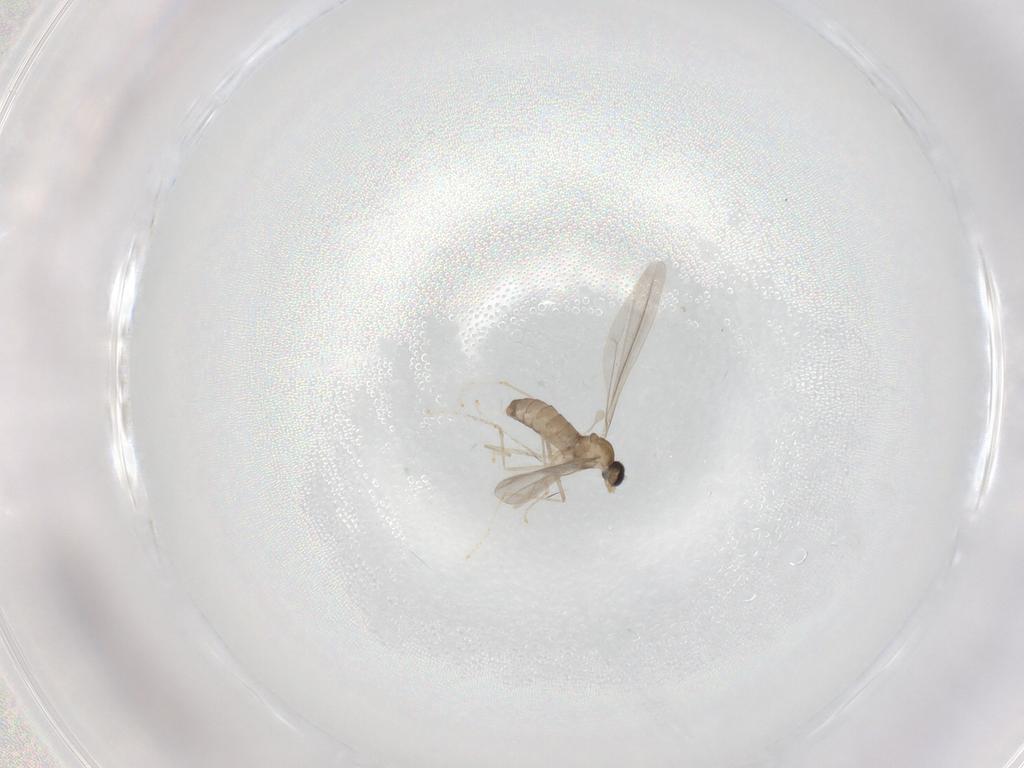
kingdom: Animalia
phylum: Arthropoda
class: Insecta
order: Diptera
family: Cecidomyiidae
